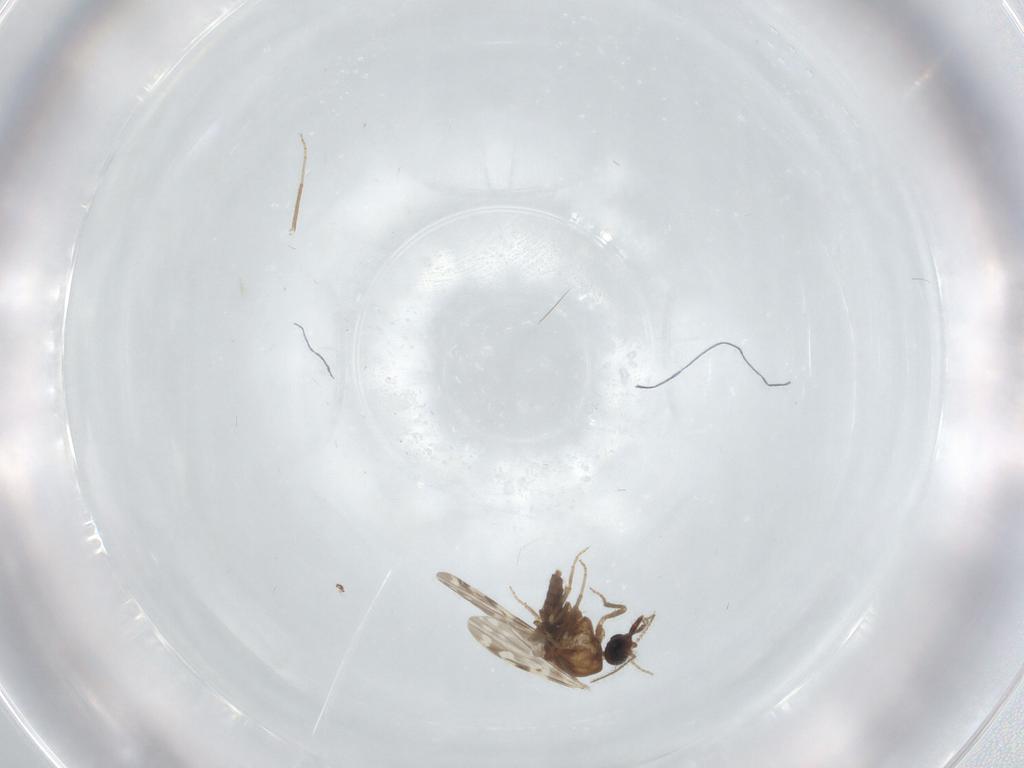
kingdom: Animalia
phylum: Arthropoda
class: Insecta
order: Diptera
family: Ceratopogonidae
